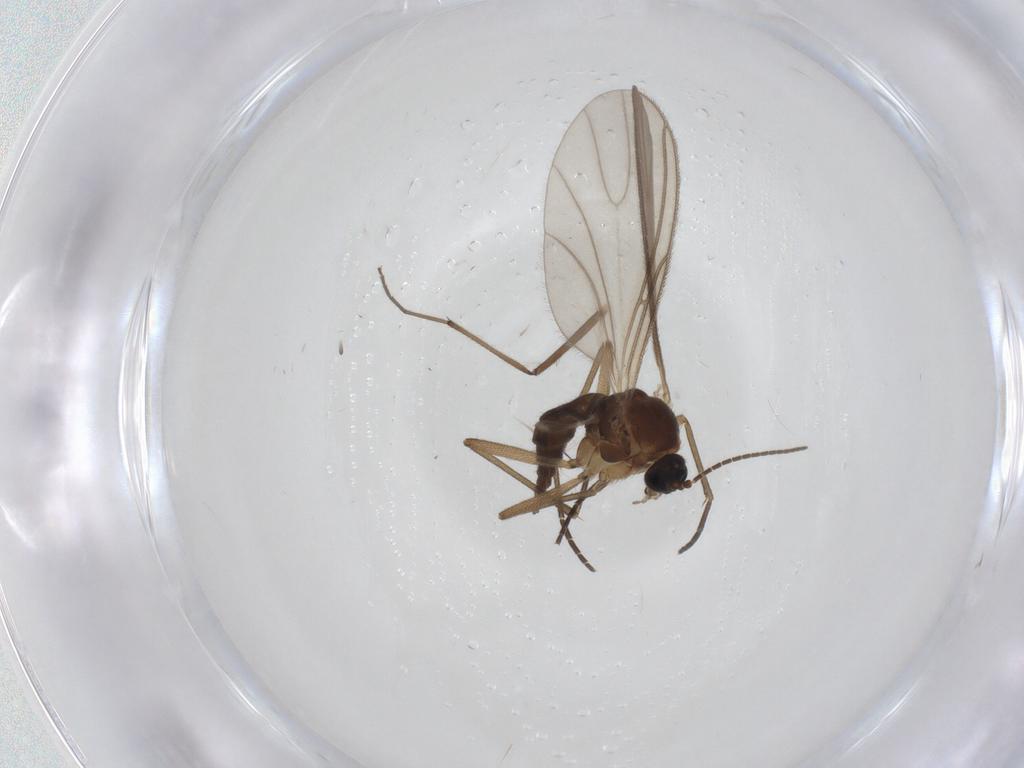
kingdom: Animalia
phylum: Arthropoda
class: Insecta
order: Diptera
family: Sciaridae
